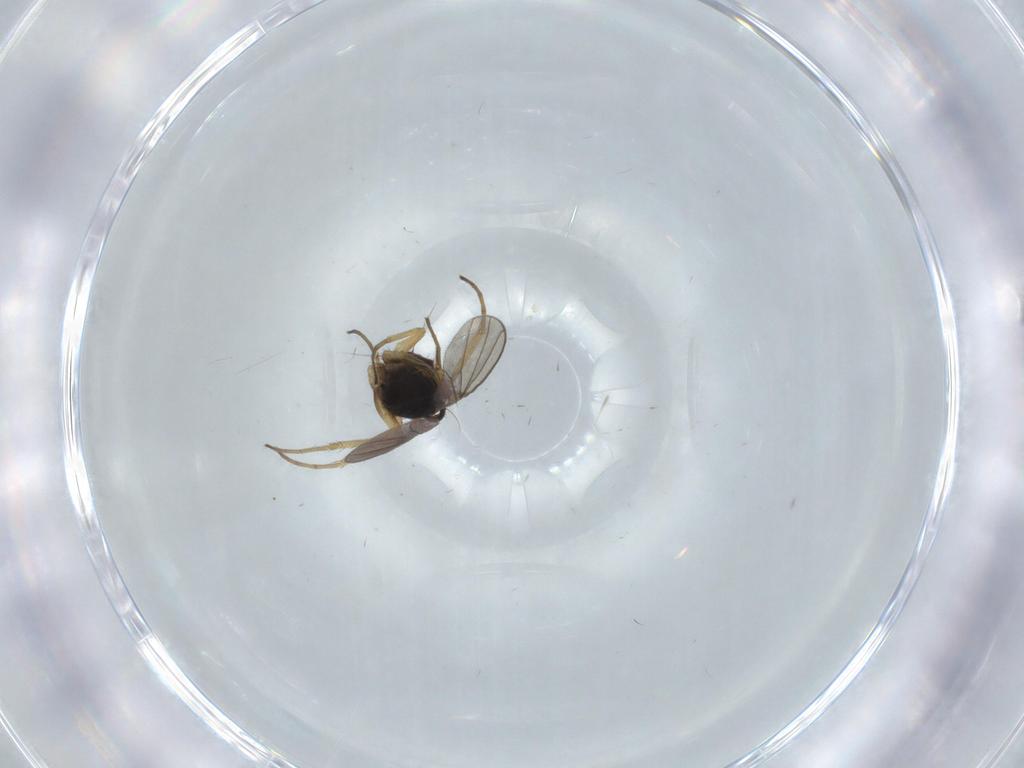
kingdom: Animalia
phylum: Arthropoda
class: Insecta
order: Diptera
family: Dolichopodidae
